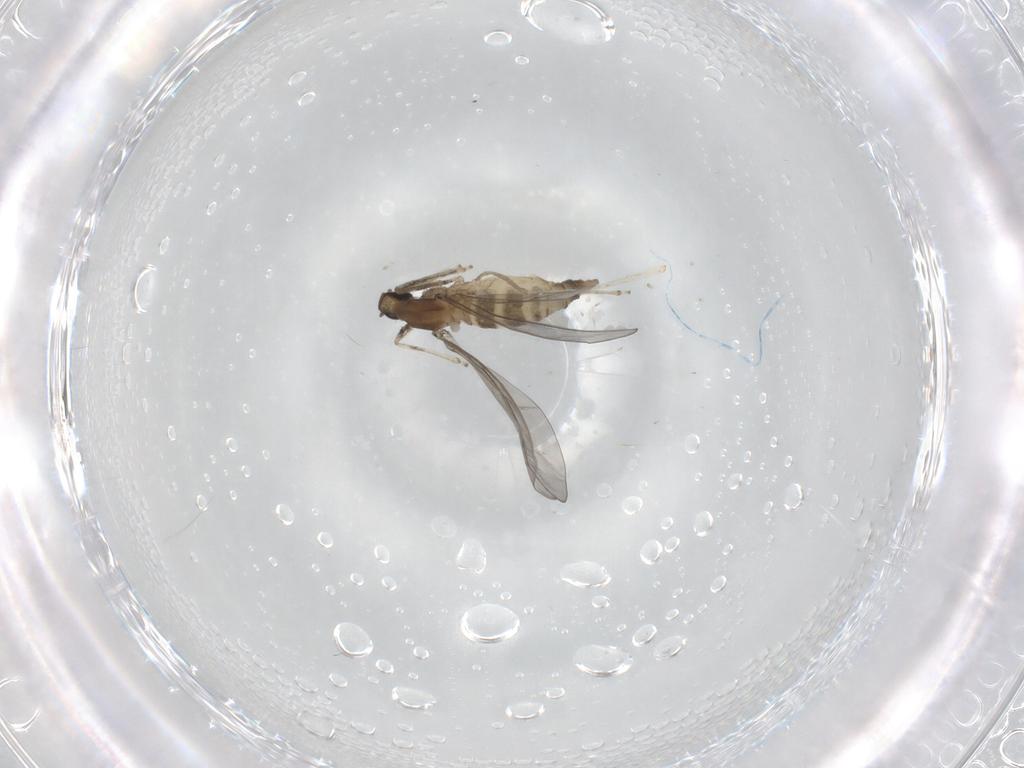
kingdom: Animalia
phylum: Arthropoda
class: Insecta
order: Diptera
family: Cecidomyiidae
